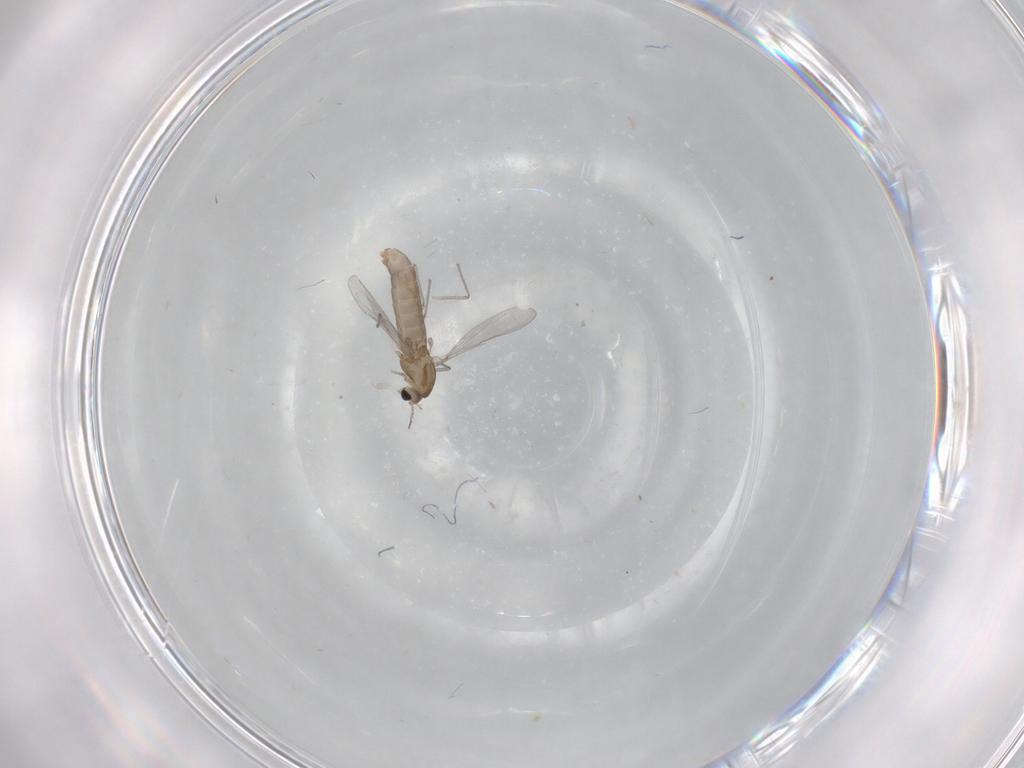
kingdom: Animalia
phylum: Arthropoda
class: Insecta
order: Diptera
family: Chironomidae
